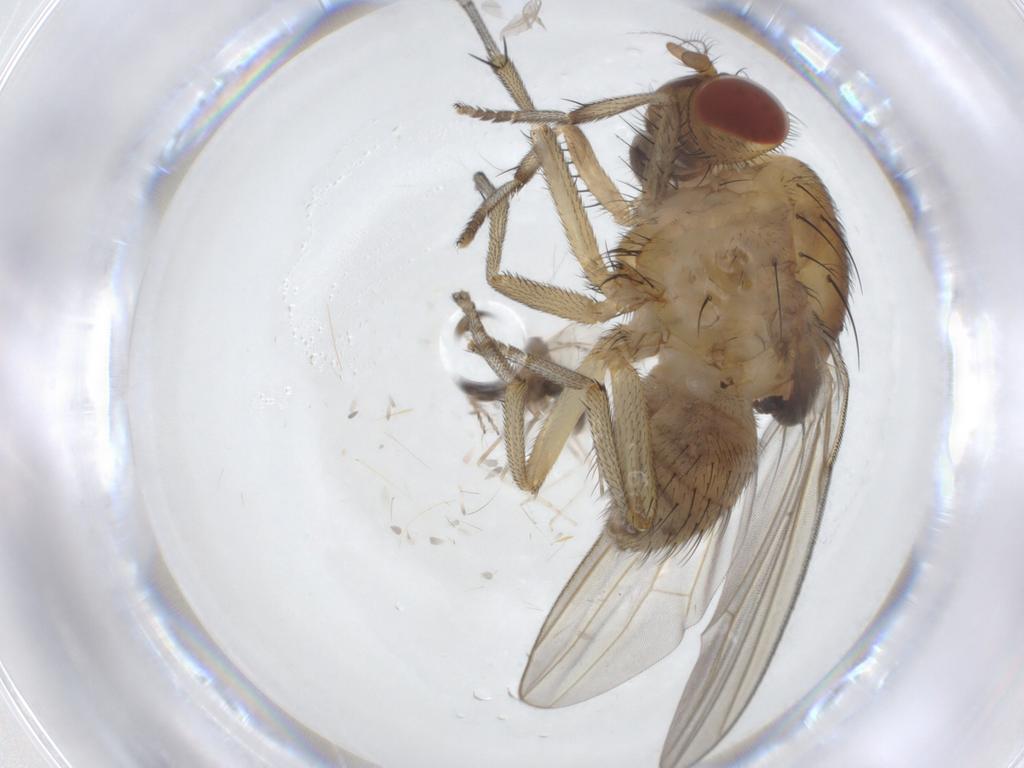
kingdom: Animalia
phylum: Arthropoda
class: Insecta
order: Diptera
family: Cecidomyiidae
